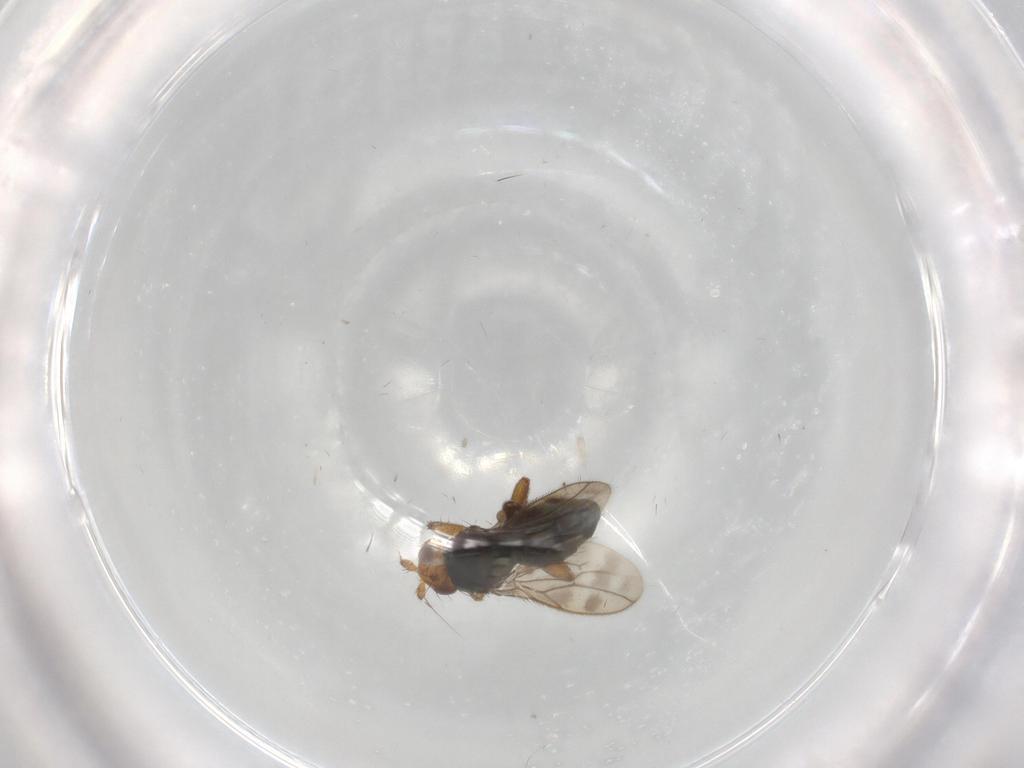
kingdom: Animalia
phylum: Arthropoda
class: Insecta
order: Diptera
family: Sphaeroceridae
